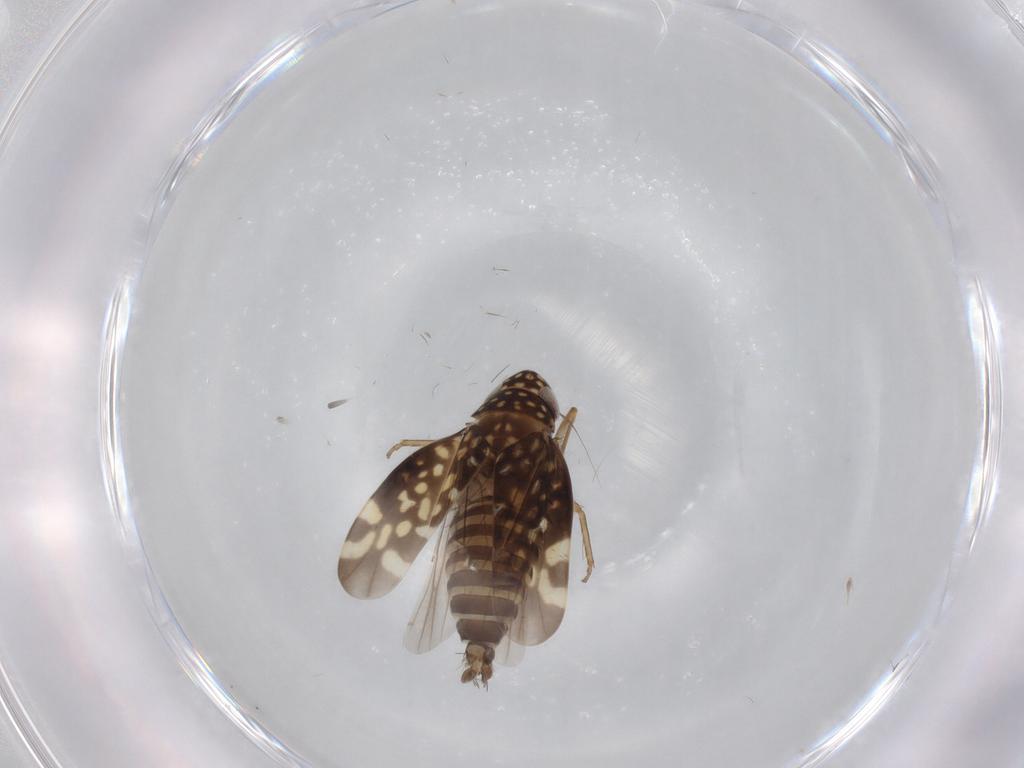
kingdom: Animalia
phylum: Arthropoda
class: Insecta
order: Hemiptera
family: Cicadellidae
